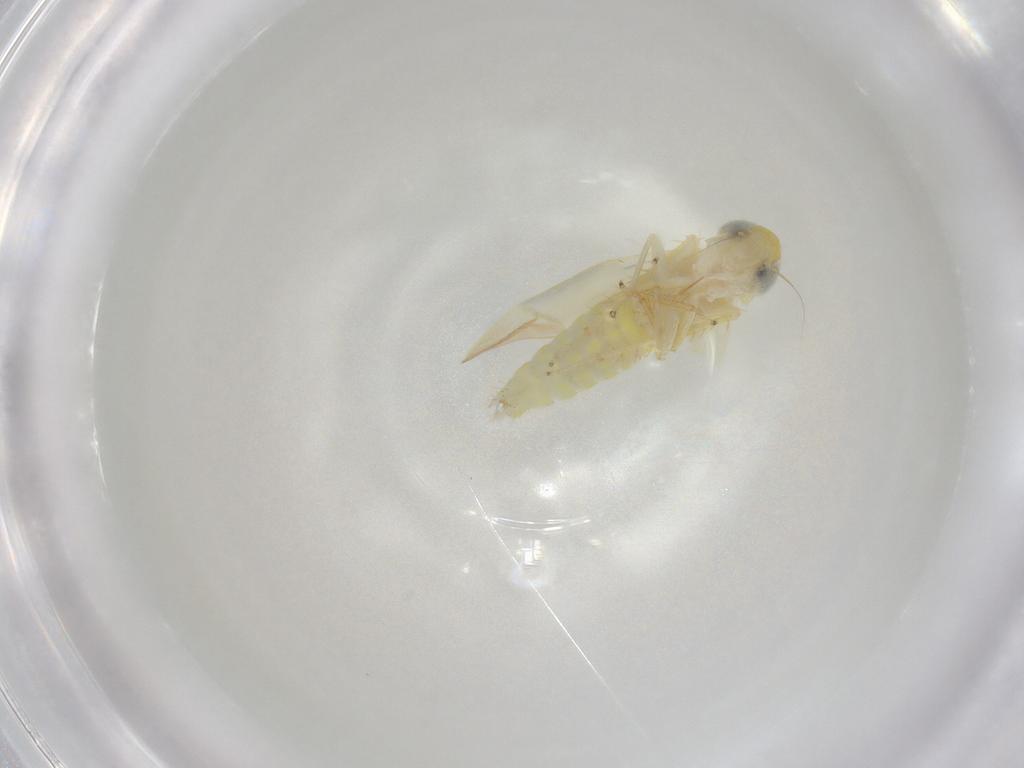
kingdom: Animalia
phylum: Arthropoda
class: Insecta
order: Hemiptera
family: Cicadellidae
